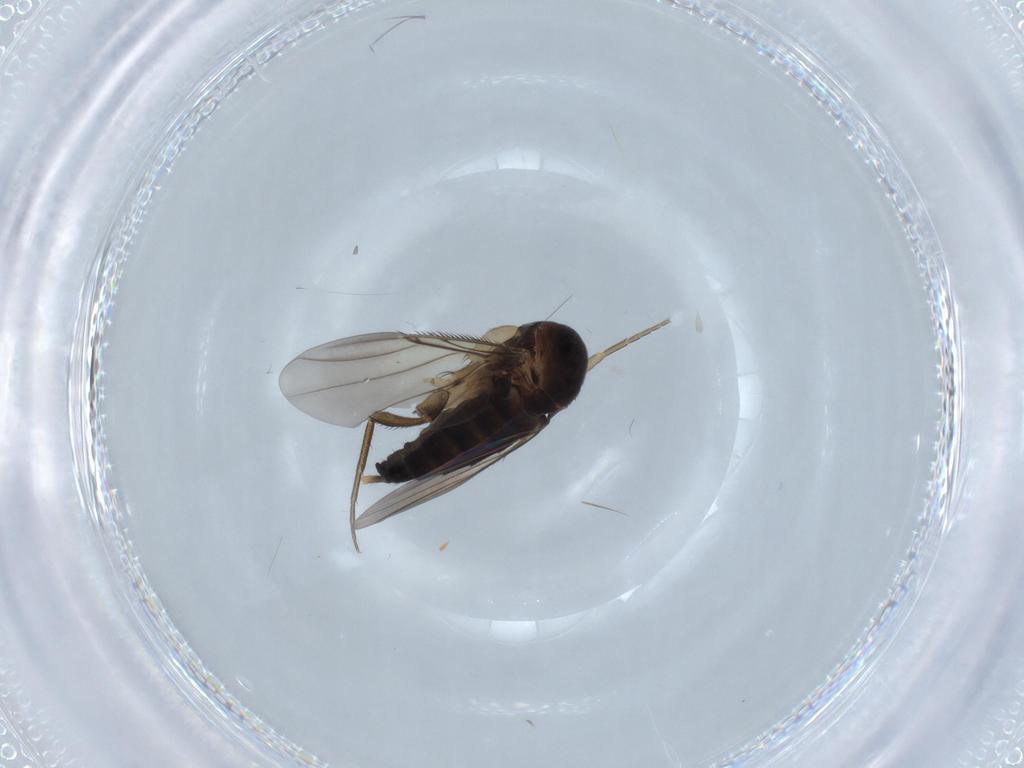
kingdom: Animalia
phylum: Arthropoda
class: Insecta
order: Diptera
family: Phoridae
